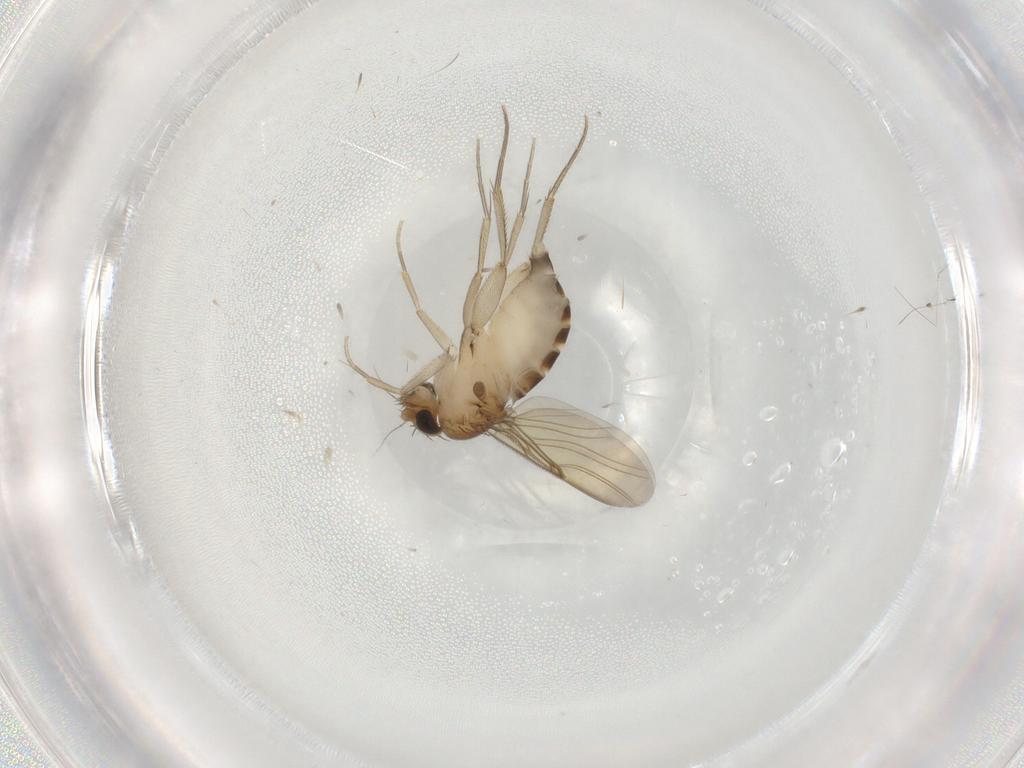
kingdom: Animalia
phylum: Arthropoda
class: Insecta
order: Diptera
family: Phoridae
